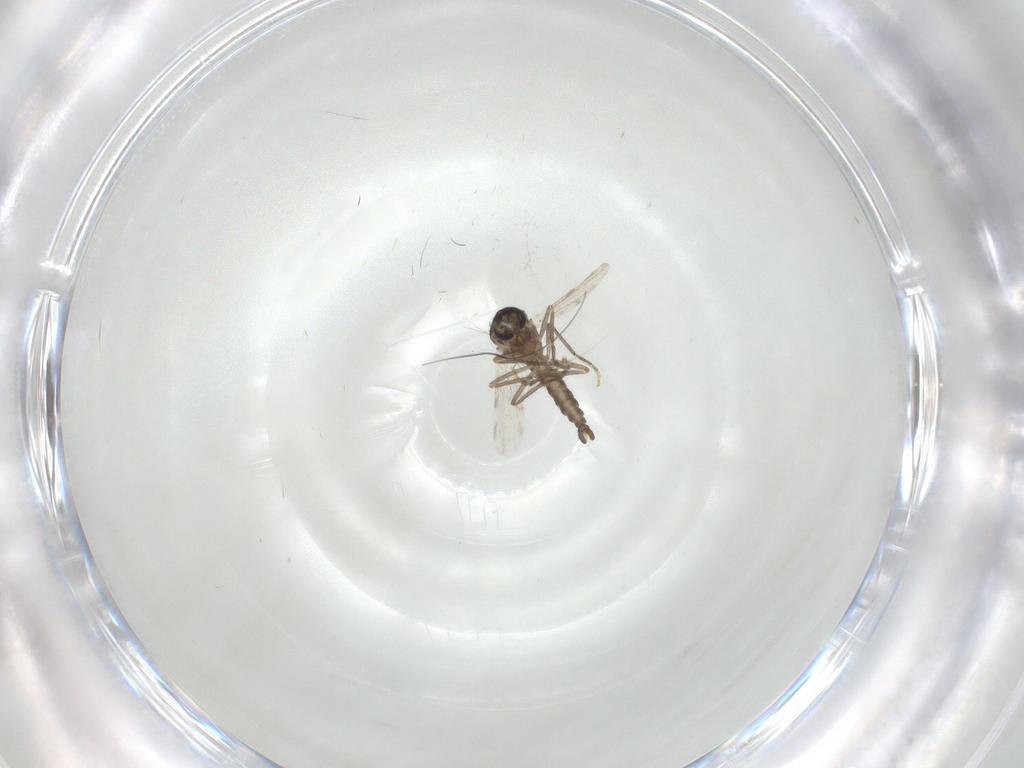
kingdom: Animalia
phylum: Arthropoda
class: Insecta
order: Diptera
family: Ceratopogonidae
